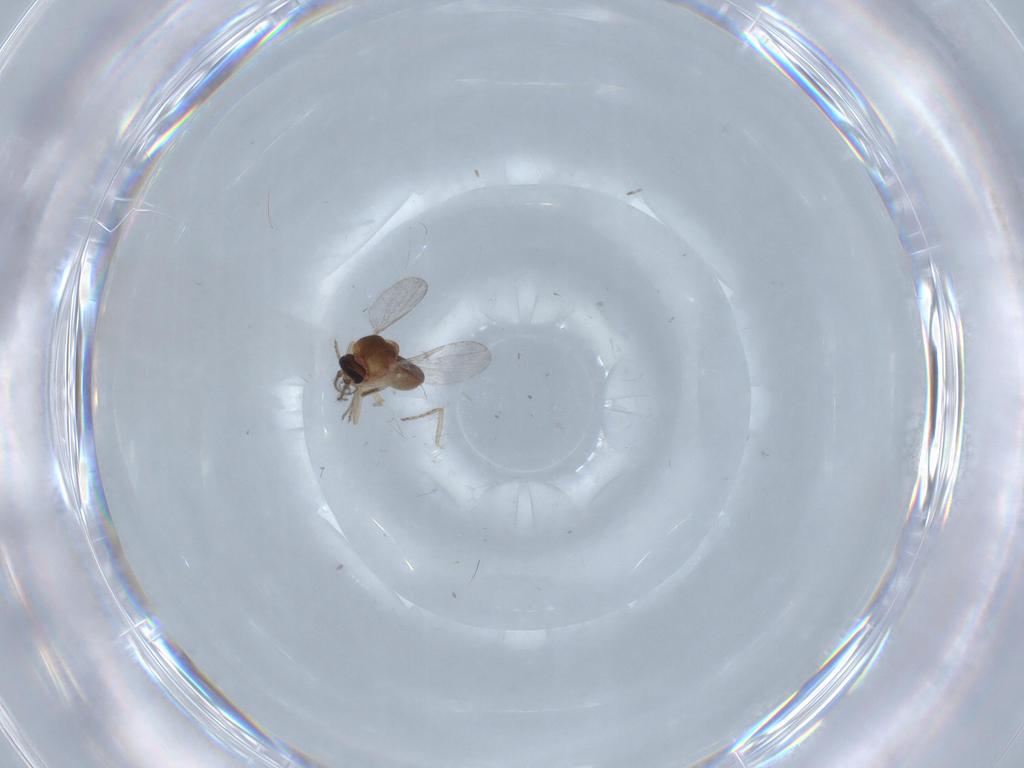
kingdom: Animalia
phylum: Arthropoda
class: Insecta
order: Diptera
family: Ceratopogonidae
